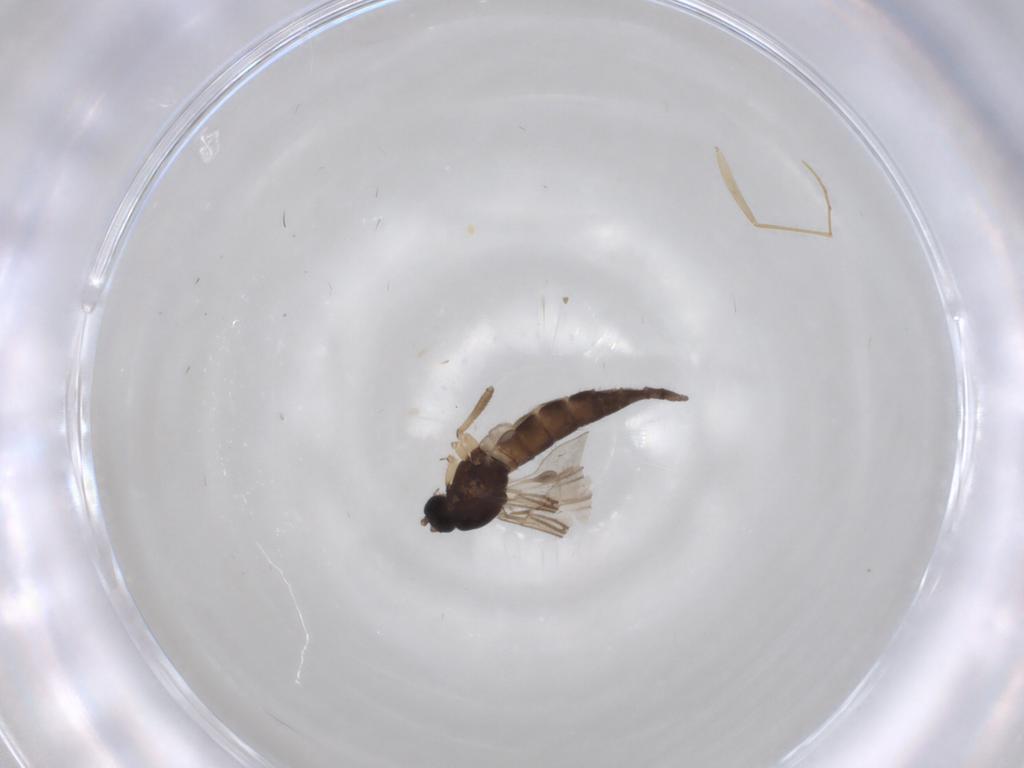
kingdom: Animalia
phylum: Arthropoda
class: Insecta
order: Diptera
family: Sciaridae
